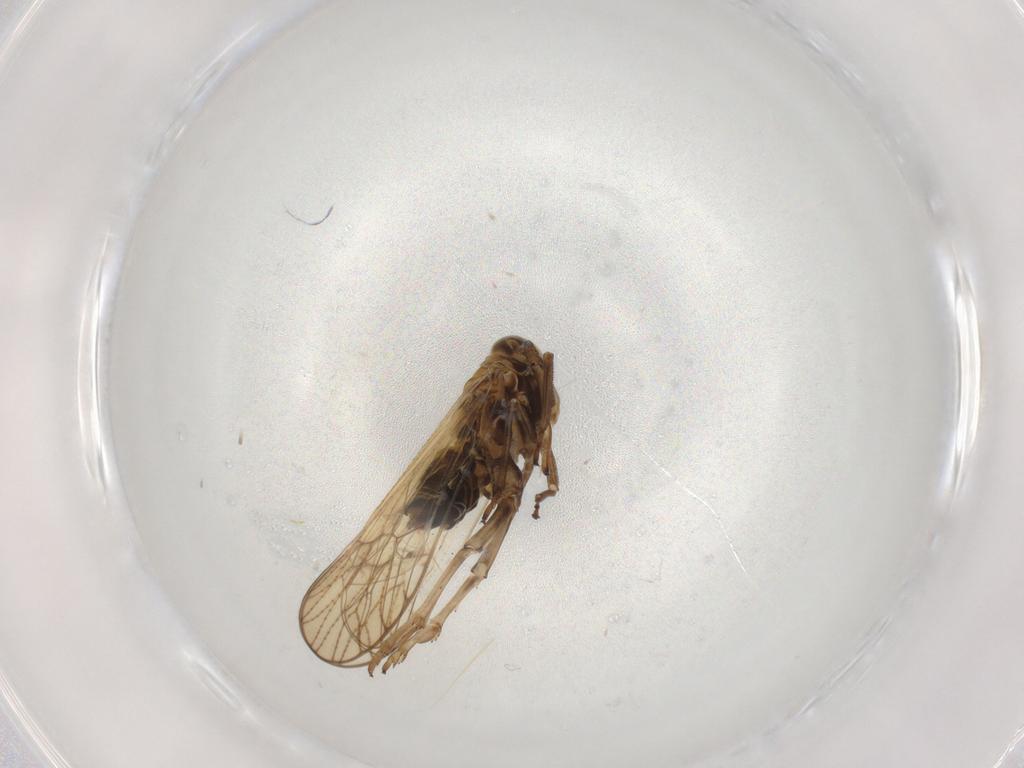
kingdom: Animalia
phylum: Arthropoda
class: Insecta
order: Hemiptera
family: Delphacidae
